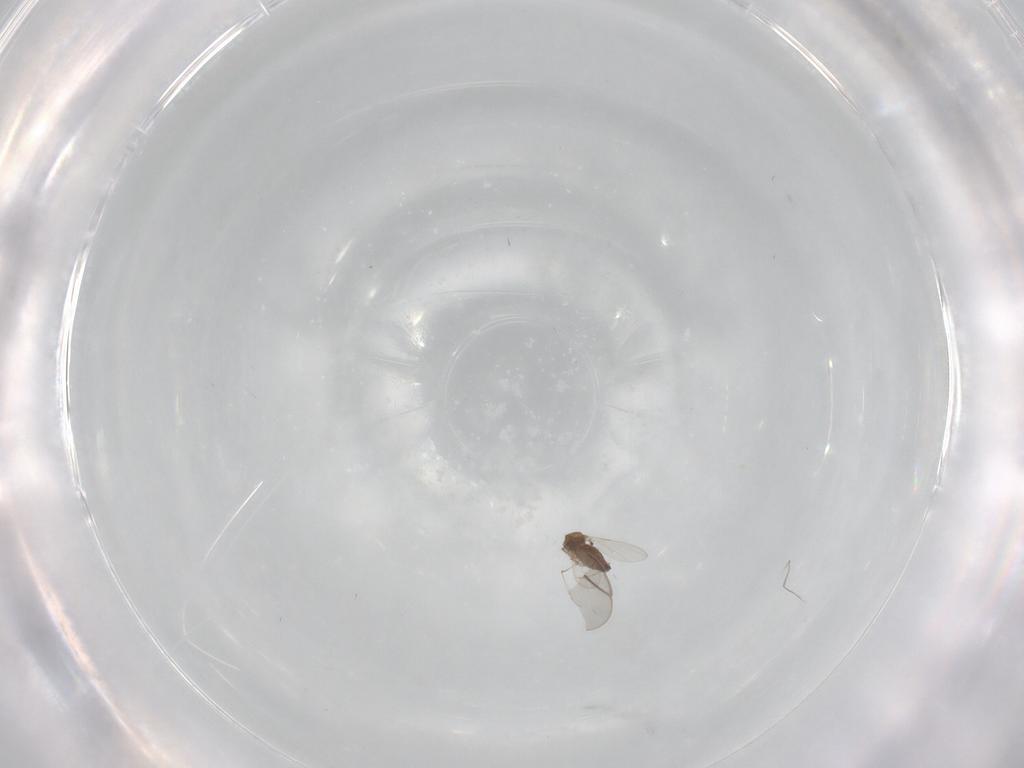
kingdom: Animalia
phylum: Arthropoda
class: Insecta
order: Diptera
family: Cecidomyiidae
